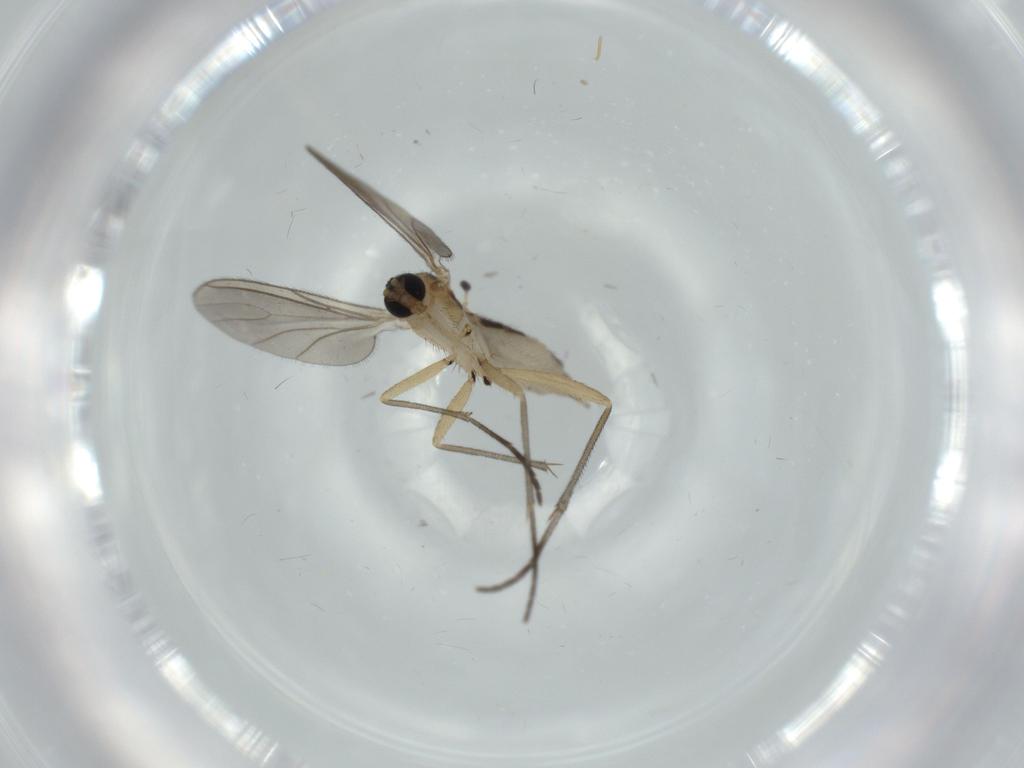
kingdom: Animalia
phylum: Arthropoda
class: Insecta
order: Diptera
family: Sciaridae
